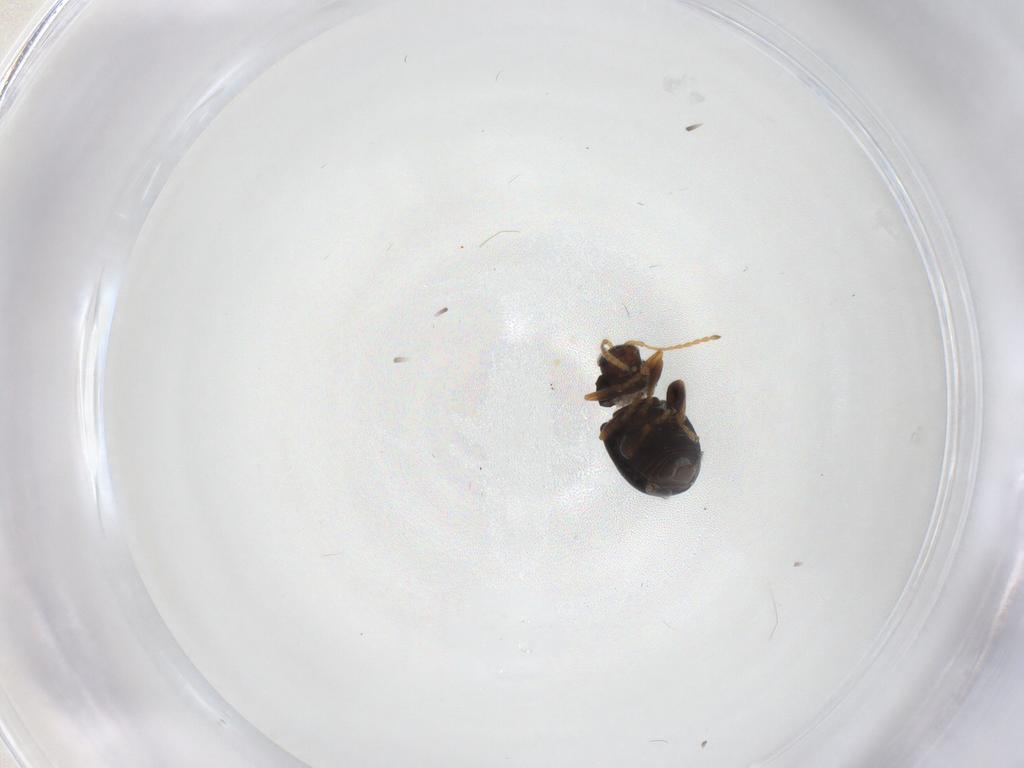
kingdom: Animalia
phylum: Arthropoda
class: Insecta
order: Coleoptera
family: Chrysomelidae
